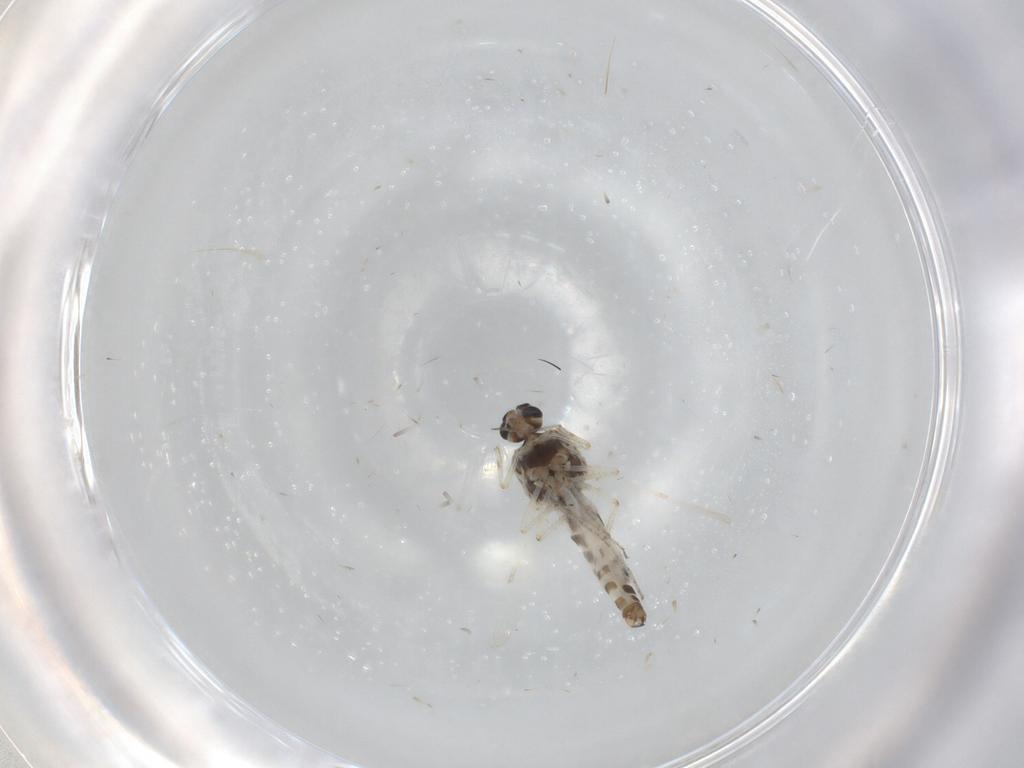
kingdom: Animalia
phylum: Arthropoda
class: Insecta
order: Diptera
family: Ceratopogonidae
